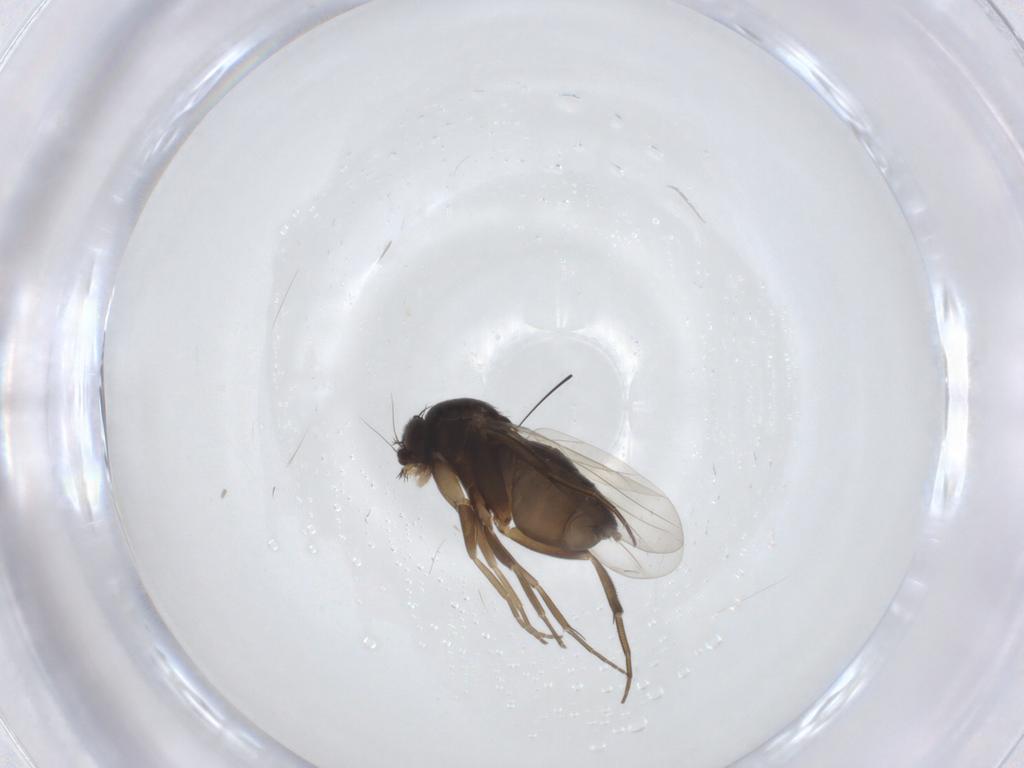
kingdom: Animalia
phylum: Arthropoda
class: Insecta
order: Diptera
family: Phoridae
